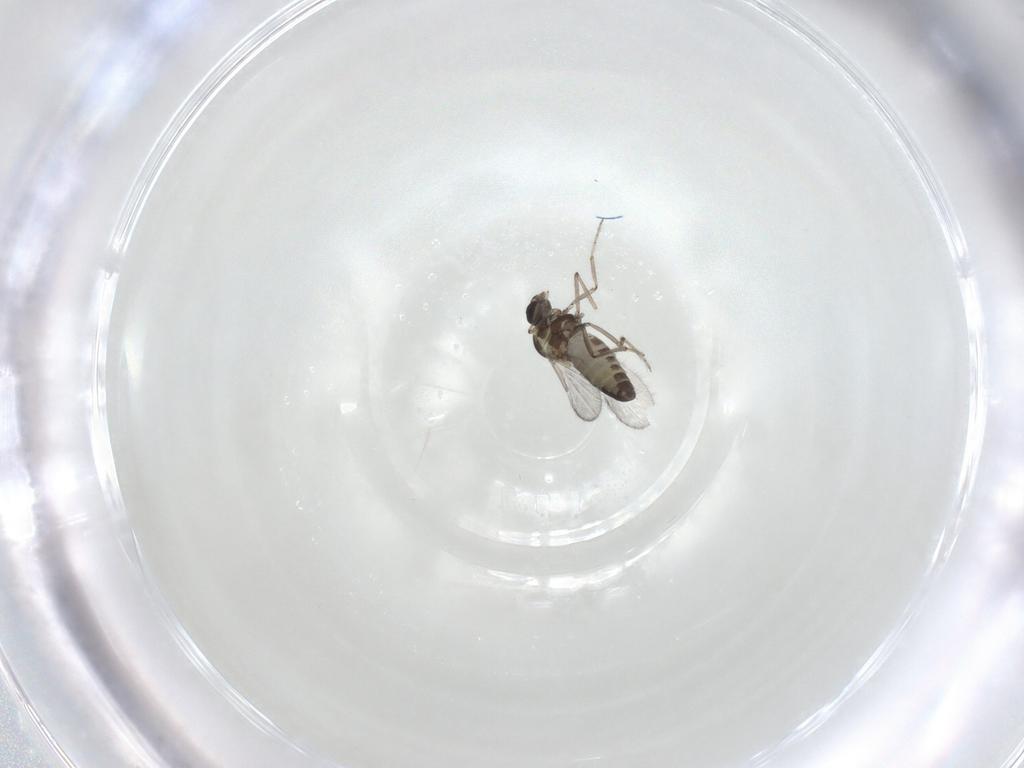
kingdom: Animalia
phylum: Arthropoda
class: Insecta
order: Diptera
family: Ceratopogonidae
